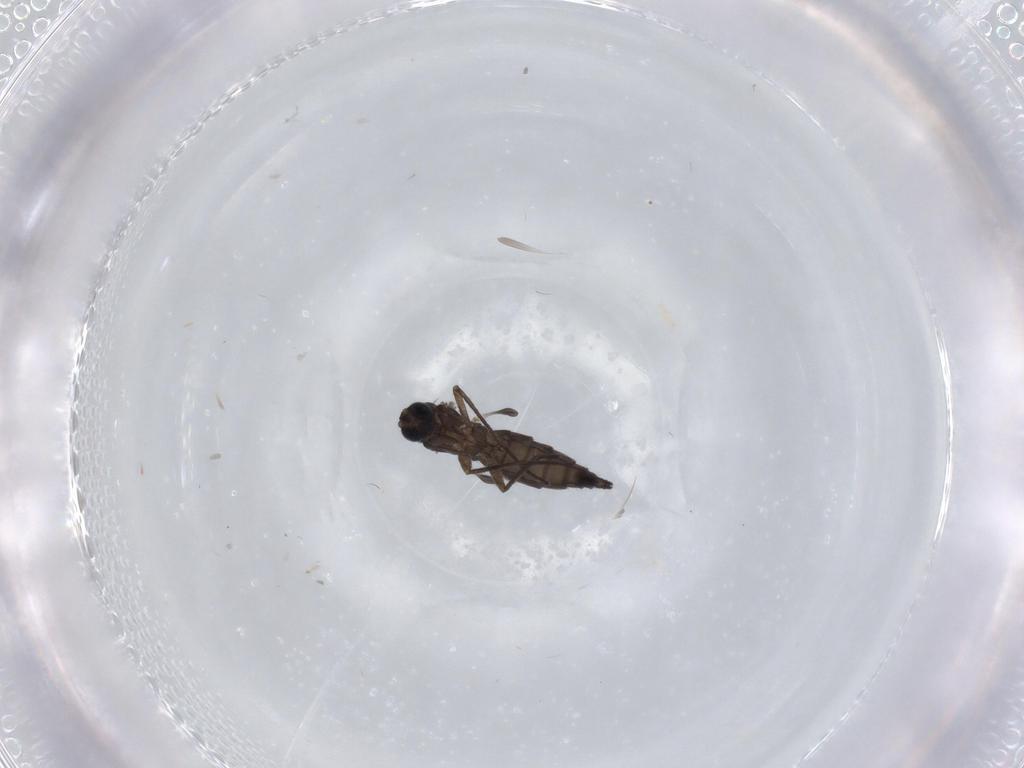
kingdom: Animalia
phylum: Arthropoda
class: Insecta
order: Diptera
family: Sciaridae
